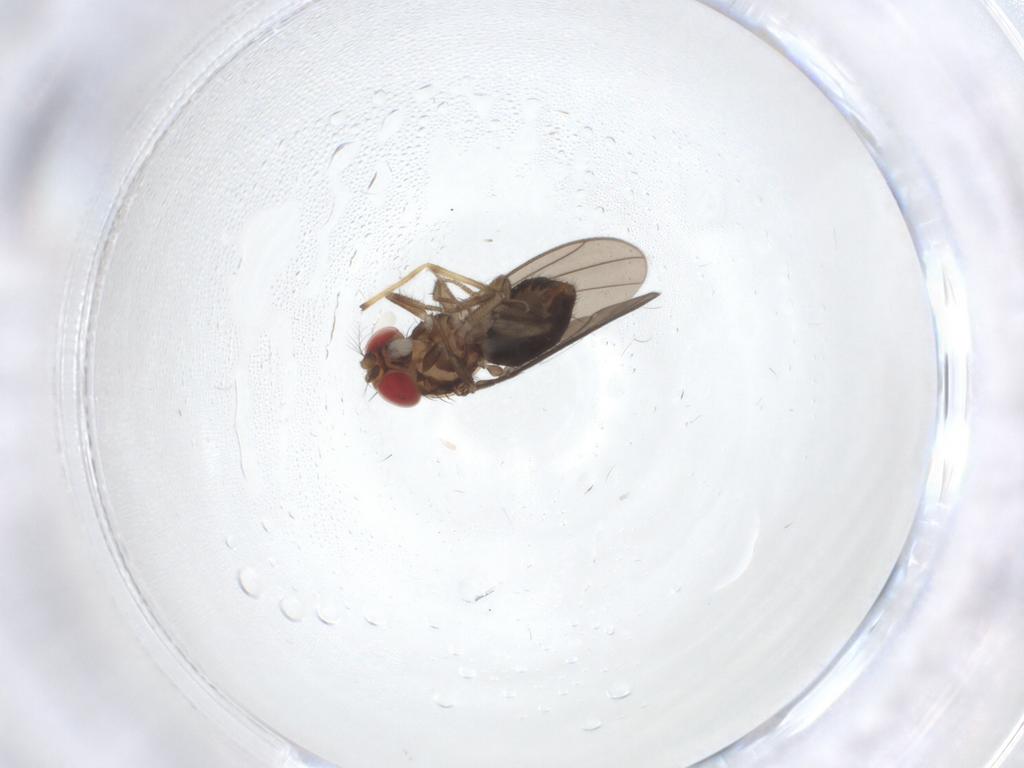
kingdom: Animalia
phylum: Arthropoda
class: Insecta
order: Diptera
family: Drosophilidae
